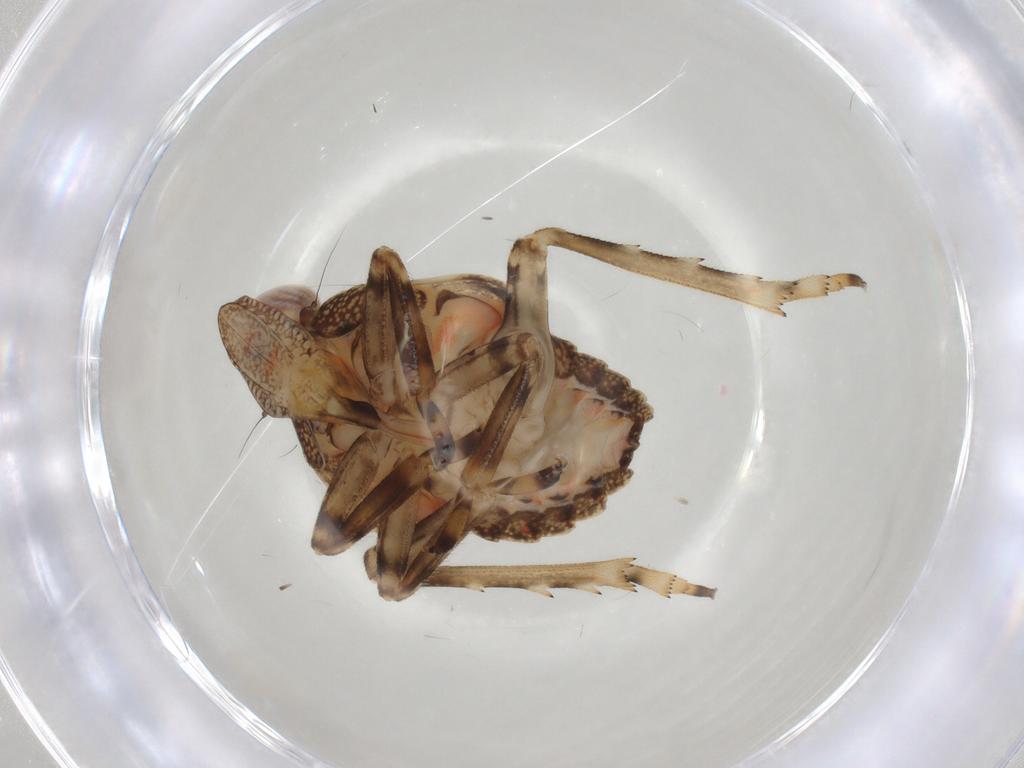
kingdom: Animalia
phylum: Arthropoda
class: Insecta
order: Hemiptera
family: Tropiduchidae
